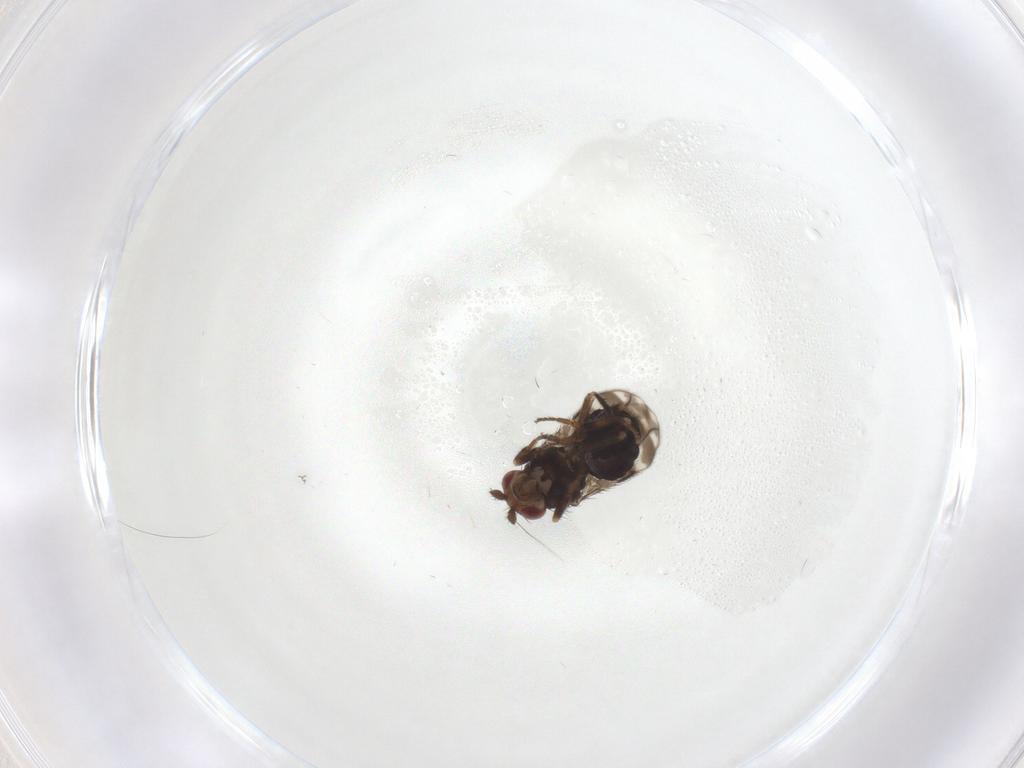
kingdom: Animalia
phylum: Arthropoda
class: Insecta
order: Diptera
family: Sphaeroceridae
